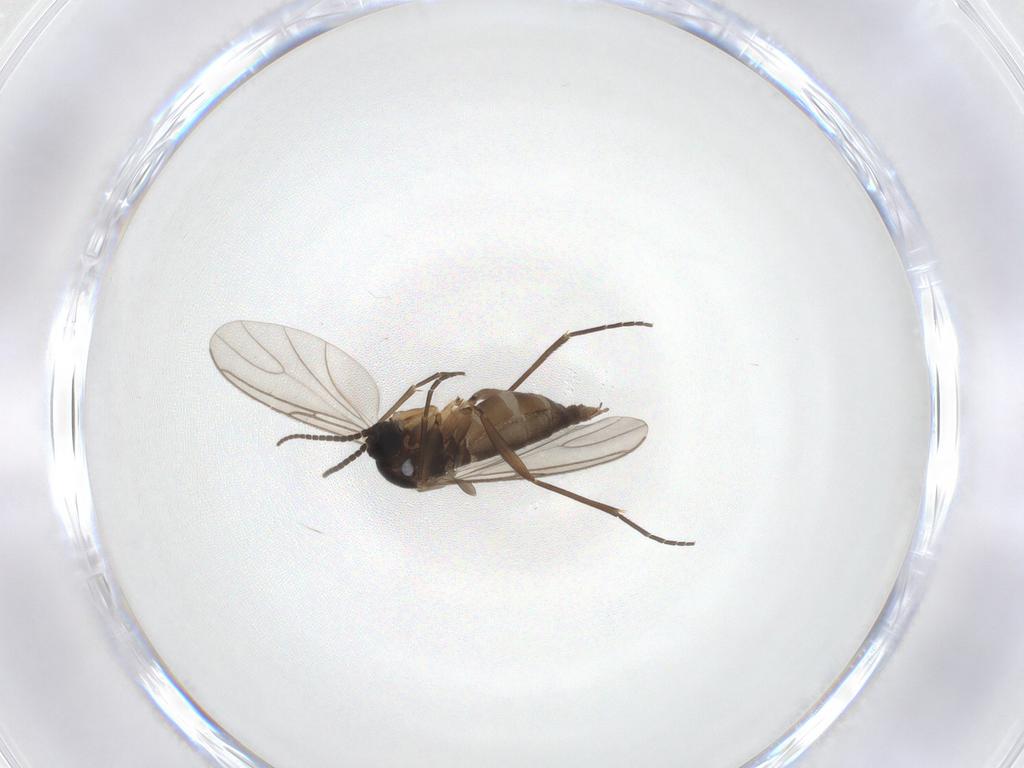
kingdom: Animalia
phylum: Arthropoda
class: Insecta
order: Diptera
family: Sciaridae
